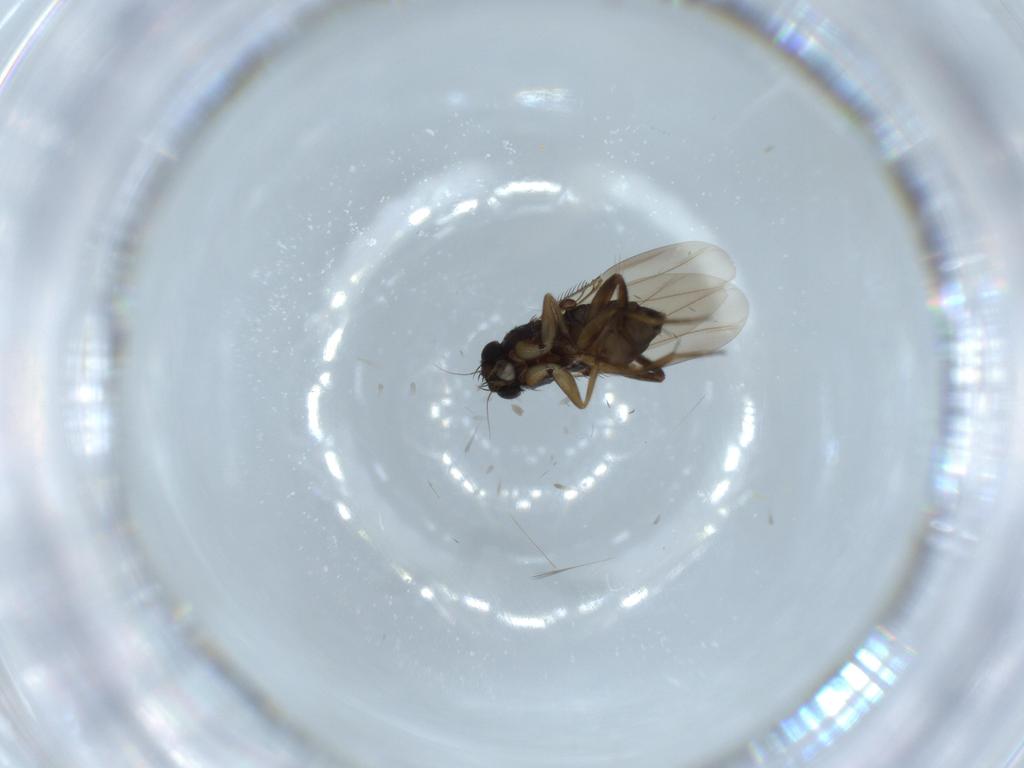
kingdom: Animalia
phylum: Arthropoda
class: Insecta
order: Diptera
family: Phoridae
